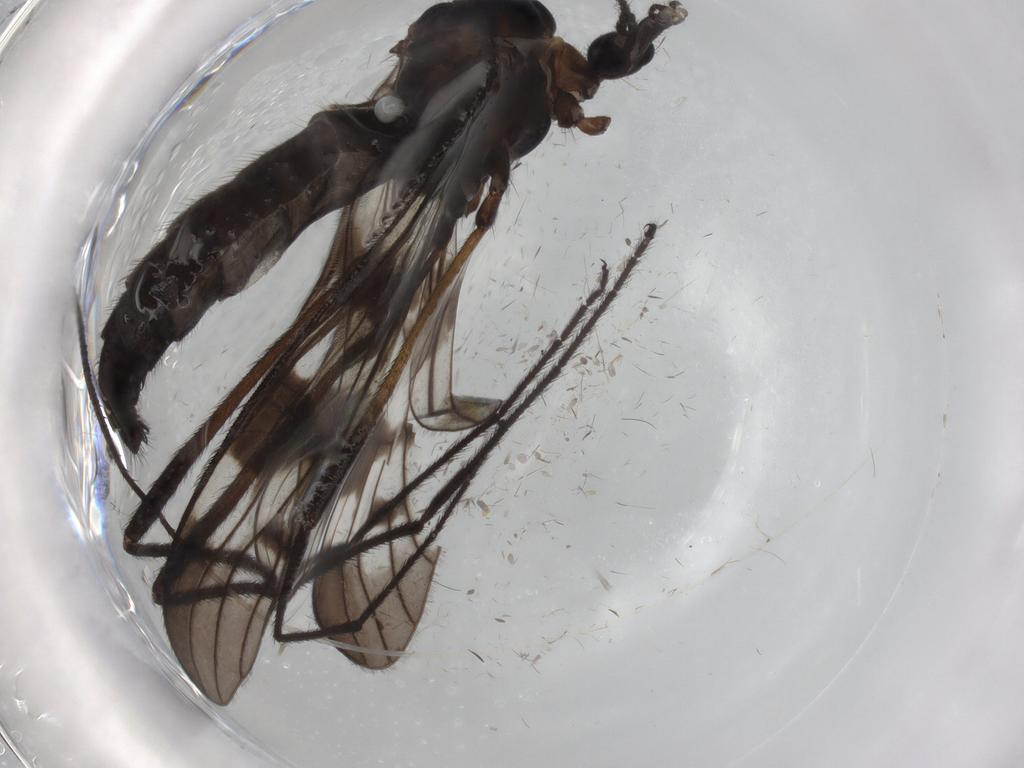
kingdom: Animalia
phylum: Arthropoda
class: Insecta
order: Diptera
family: Limoniidae
